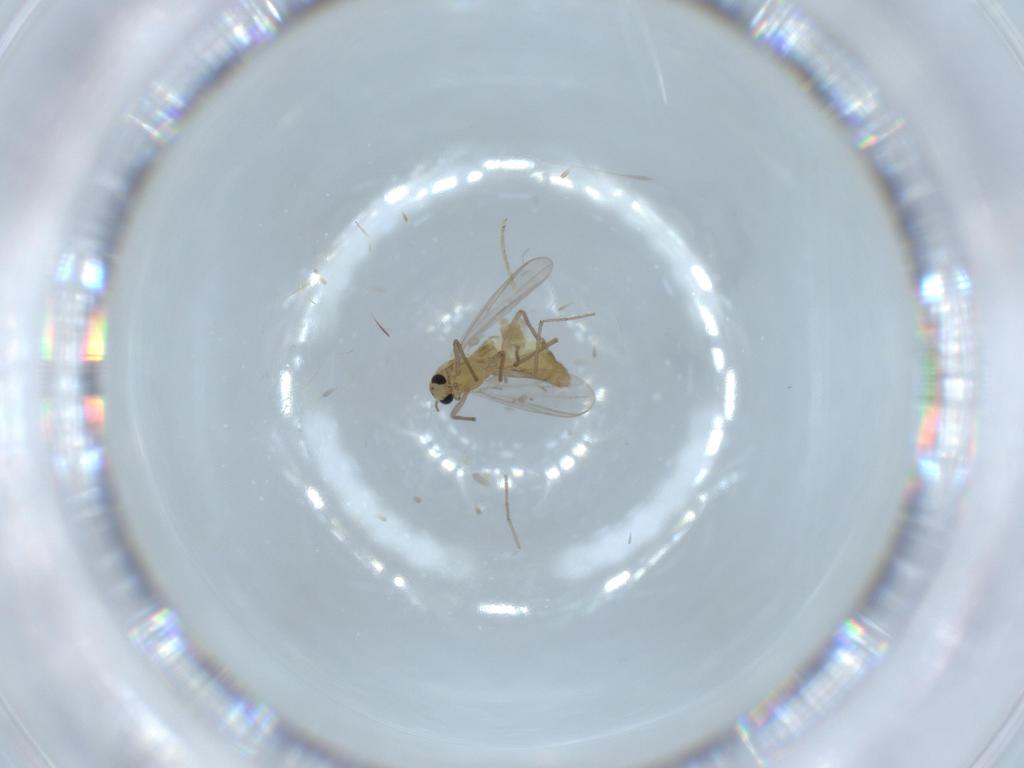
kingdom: Animalia
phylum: Arthropoda
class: Insecta
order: Diptera
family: Chironomidae
